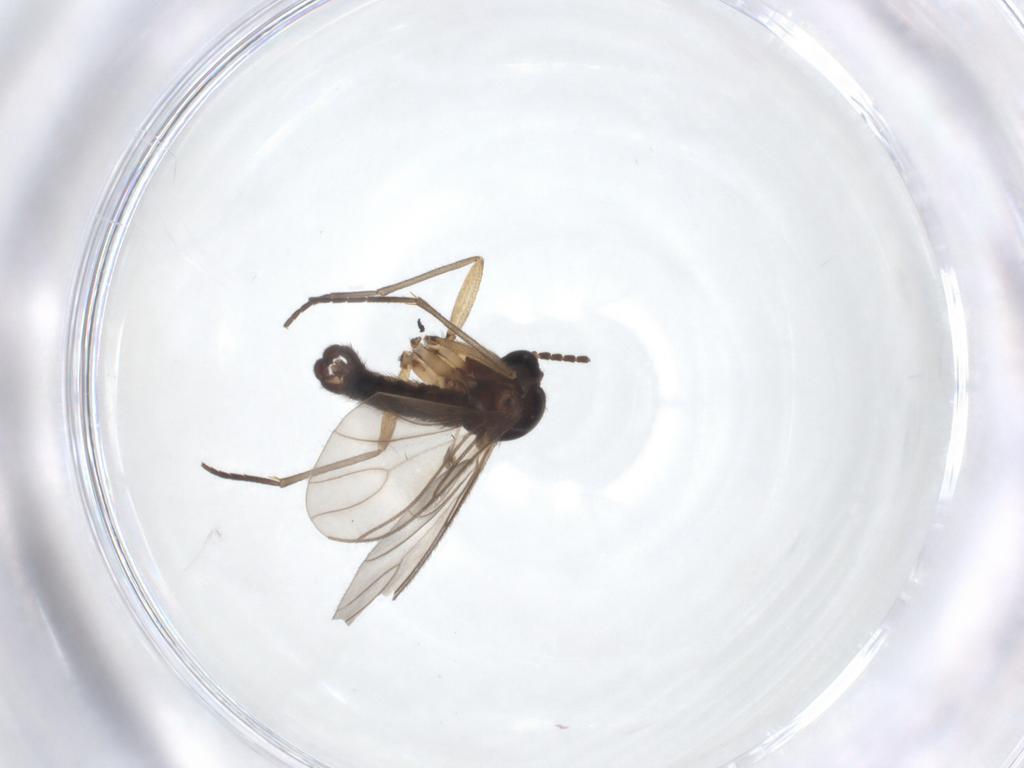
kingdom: Animalia
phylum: Arthropoda
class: Insecta
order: Diptera
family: Sciaridae
